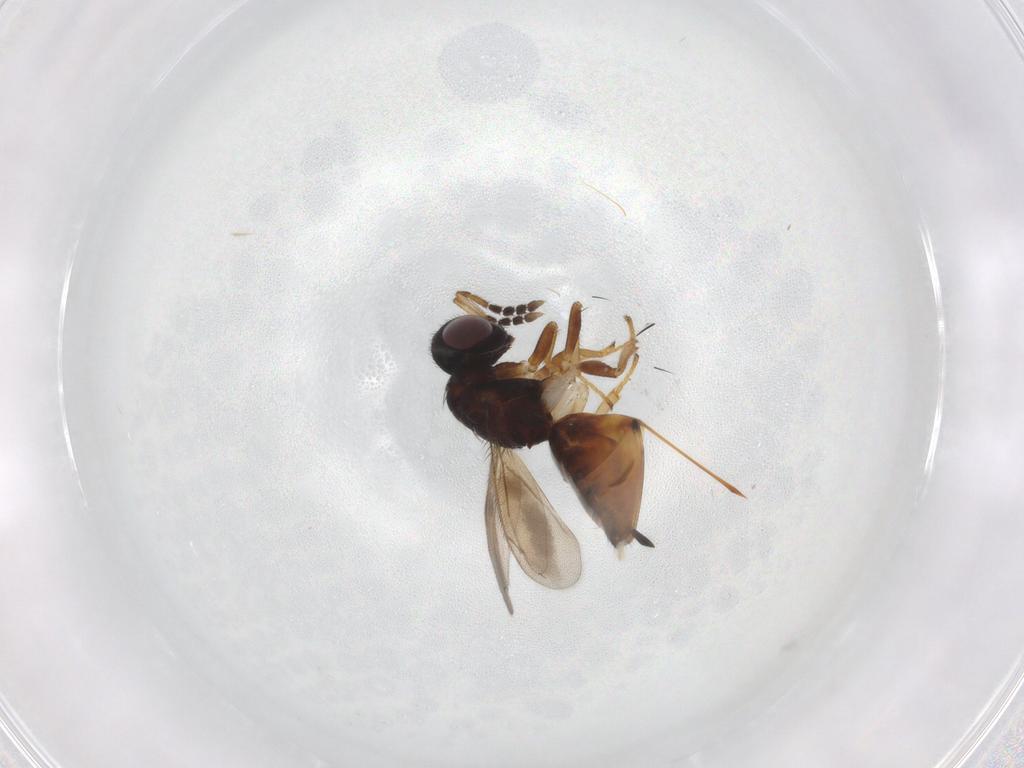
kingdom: Animalia
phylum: Arthropoda
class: Insecta
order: Hymenoptera
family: Eulophidae
